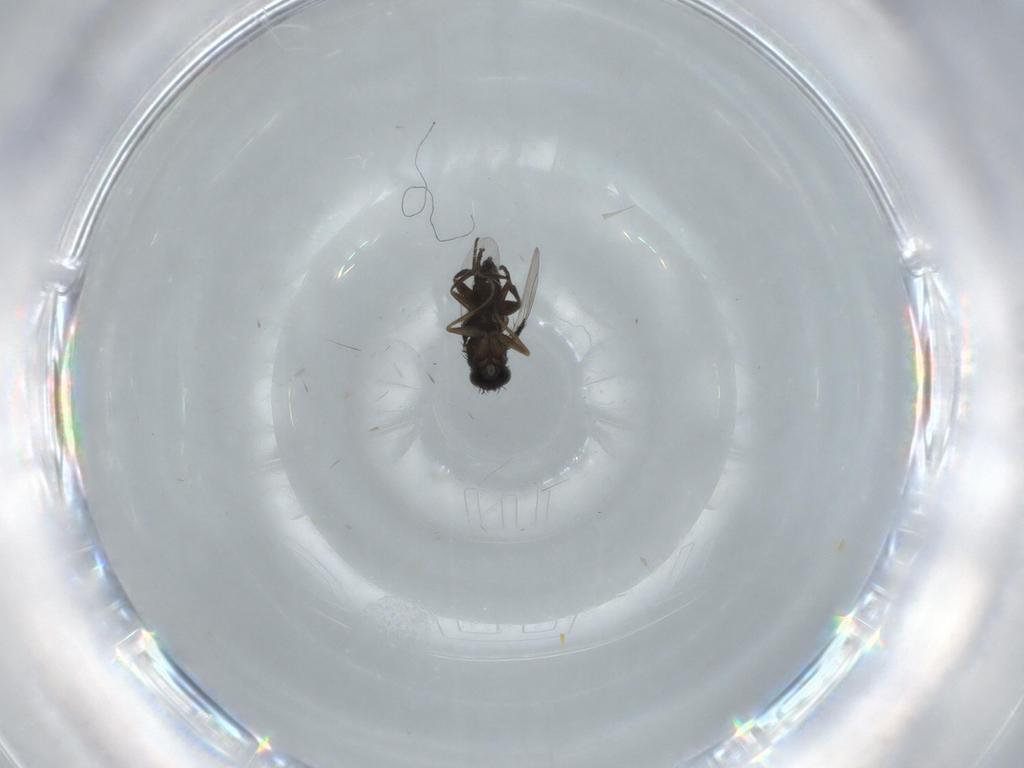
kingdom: Animalia
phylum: Arthropoda
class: Insecta
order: Diptera
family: Phoridae
